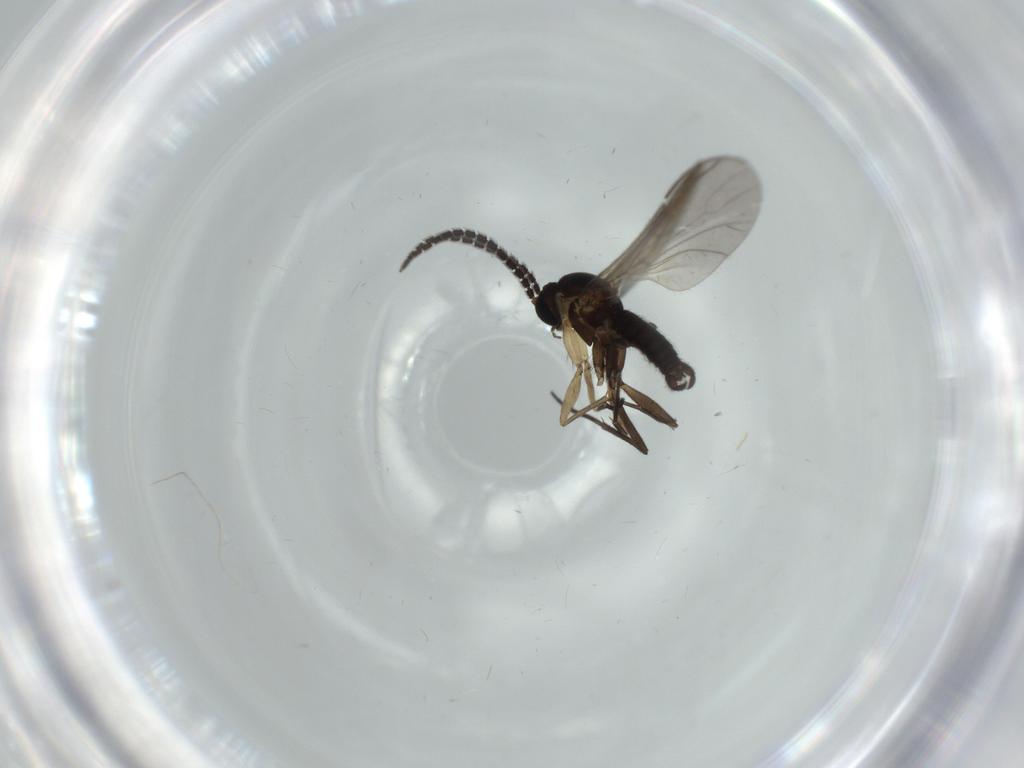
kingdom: Animalia
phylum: Arthropoda
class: Insecta
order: Diptera
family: Sciaridae
